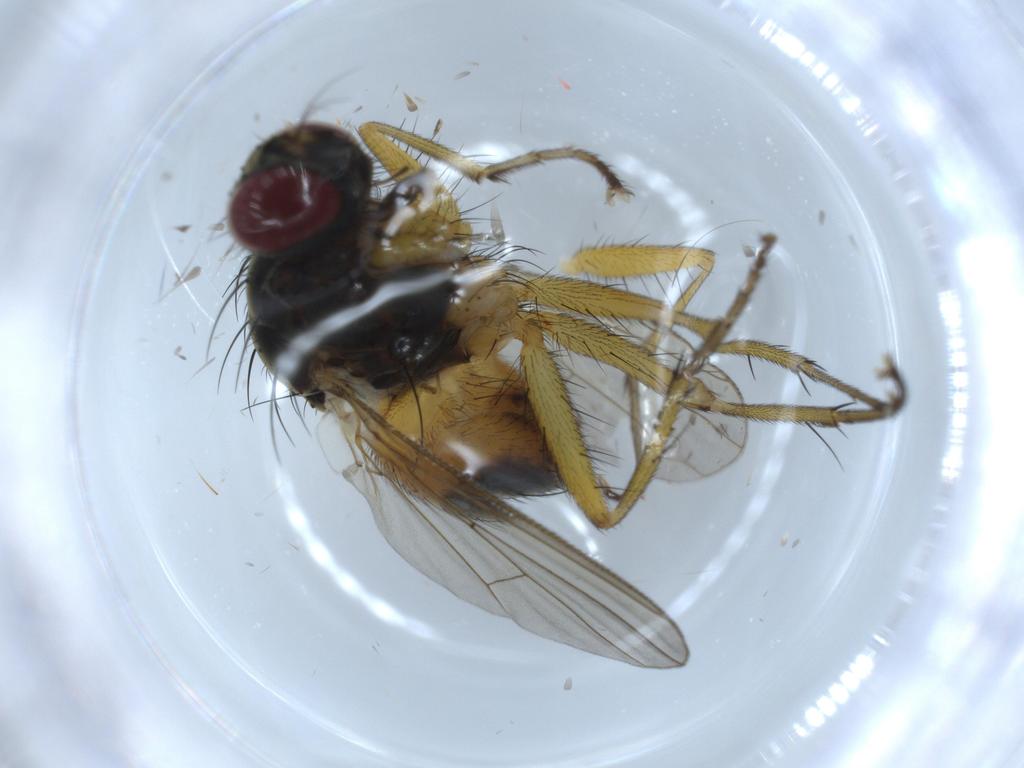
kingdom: Animalia
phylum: Arthropoda
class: Insecta
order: Diptera
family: Muscidae
